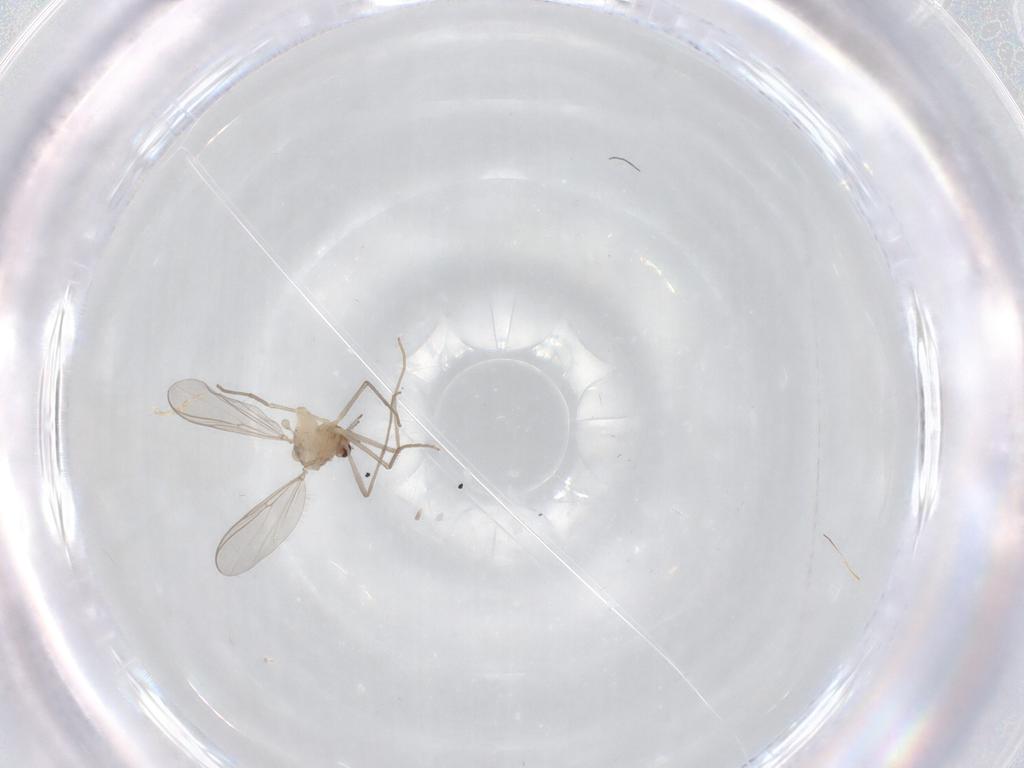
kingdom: Animalia
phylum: Arthropoda
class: Insecta
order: Diptera
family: Chironomidae
